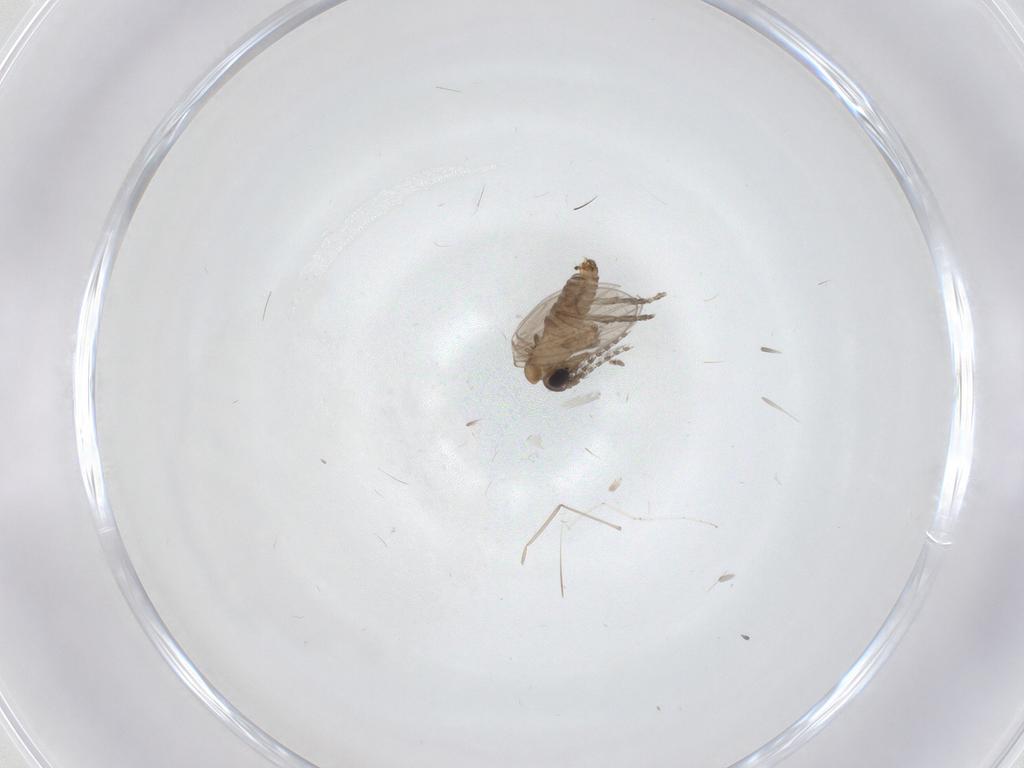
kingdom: Animalia
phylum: Arthropoda
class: Insecta
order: Diptera
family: Cecidomyiidae
